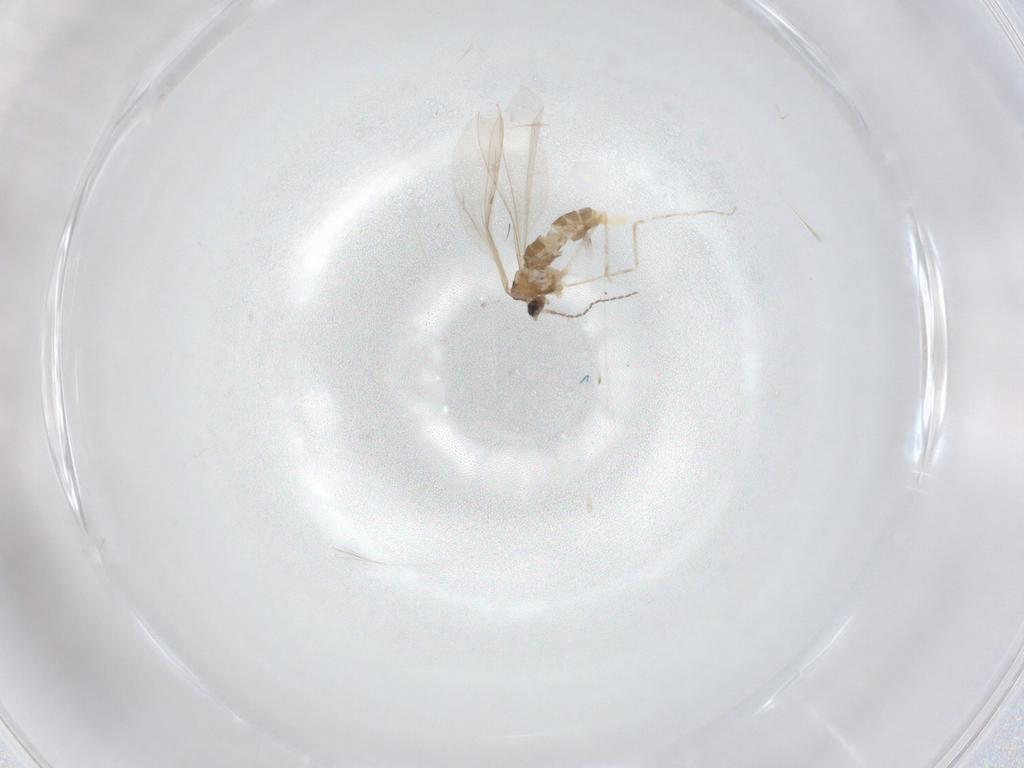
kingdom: Animalia
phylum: Arthropoda
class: Insecta
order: Diptera
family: Cecidomyiidae
